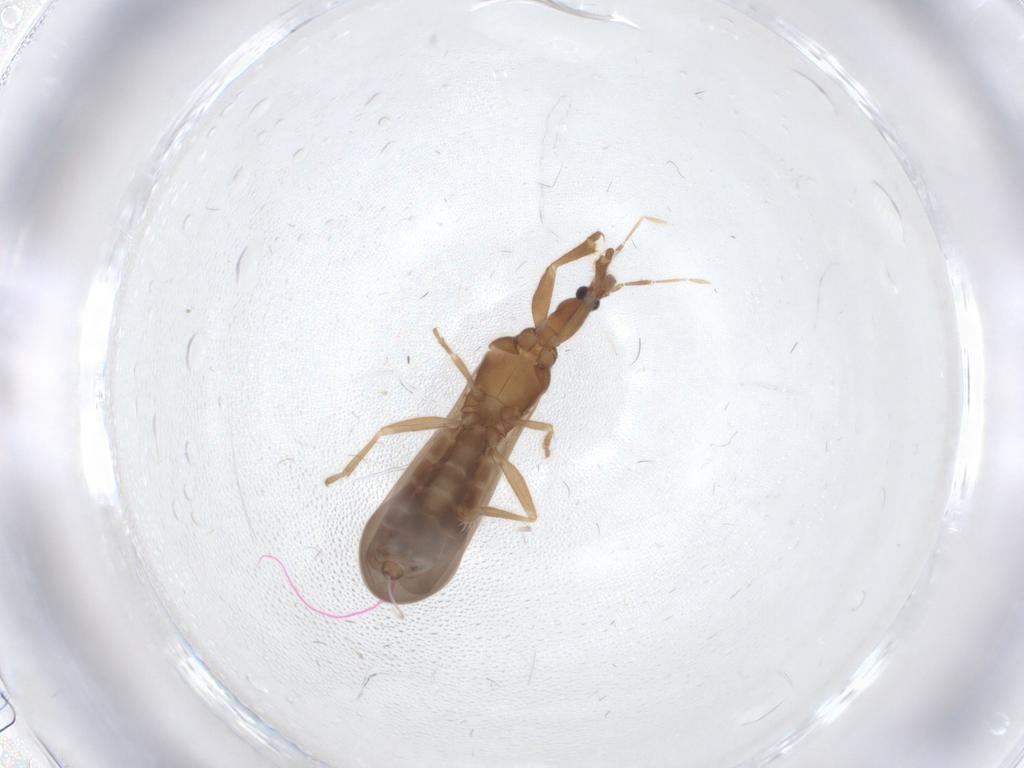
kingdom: Animalia
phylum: Arthropoda
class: Insecta
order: Hemiptera
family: Enicocephalidae
